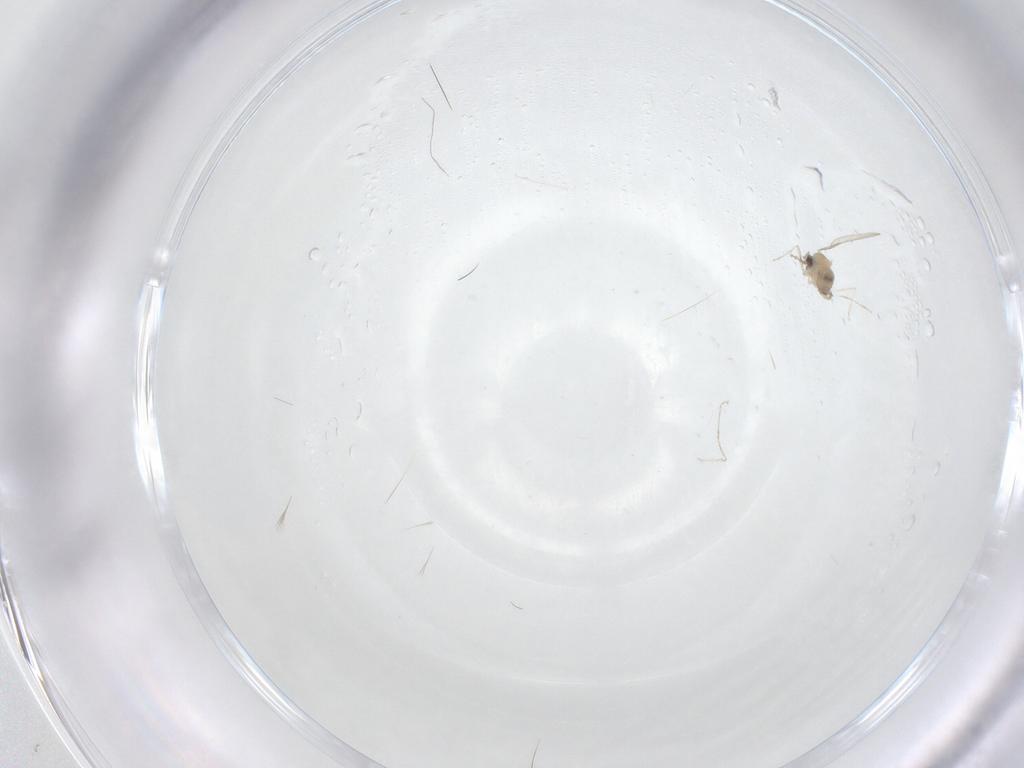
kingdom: Animalia
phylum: Arthropoda
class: Insecta
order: Diptera
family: Cecidomyiidae
